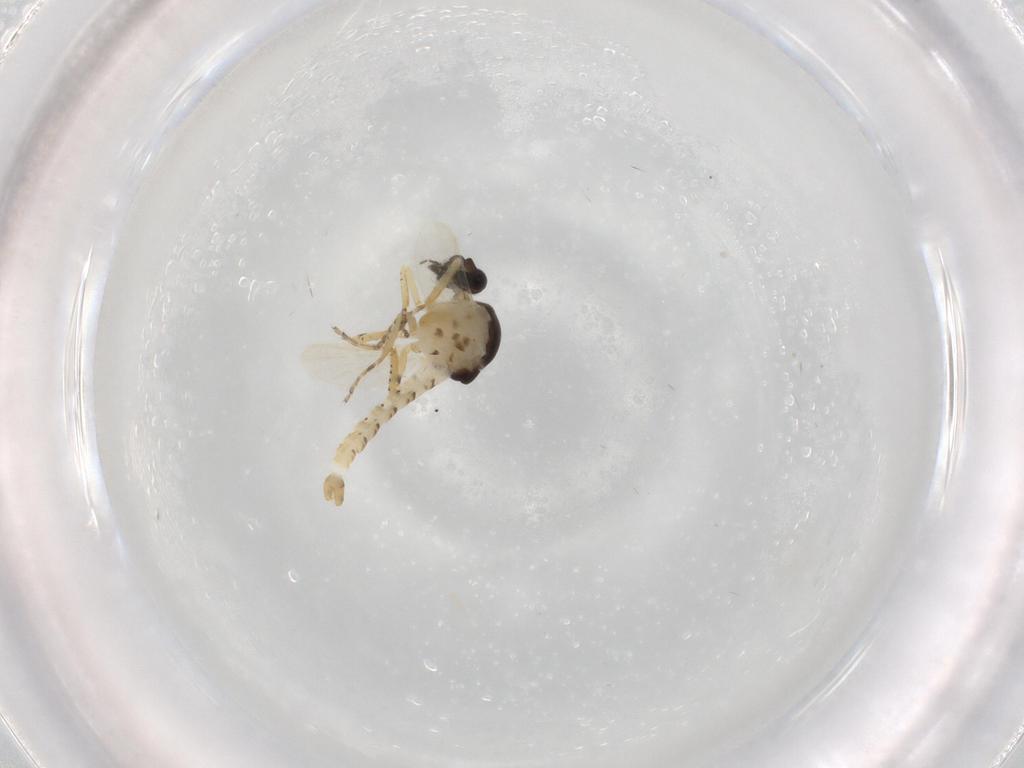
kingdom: Animalia
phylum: Arthropoda
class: Insecta
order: Diptera
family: Ceratopogonidae
